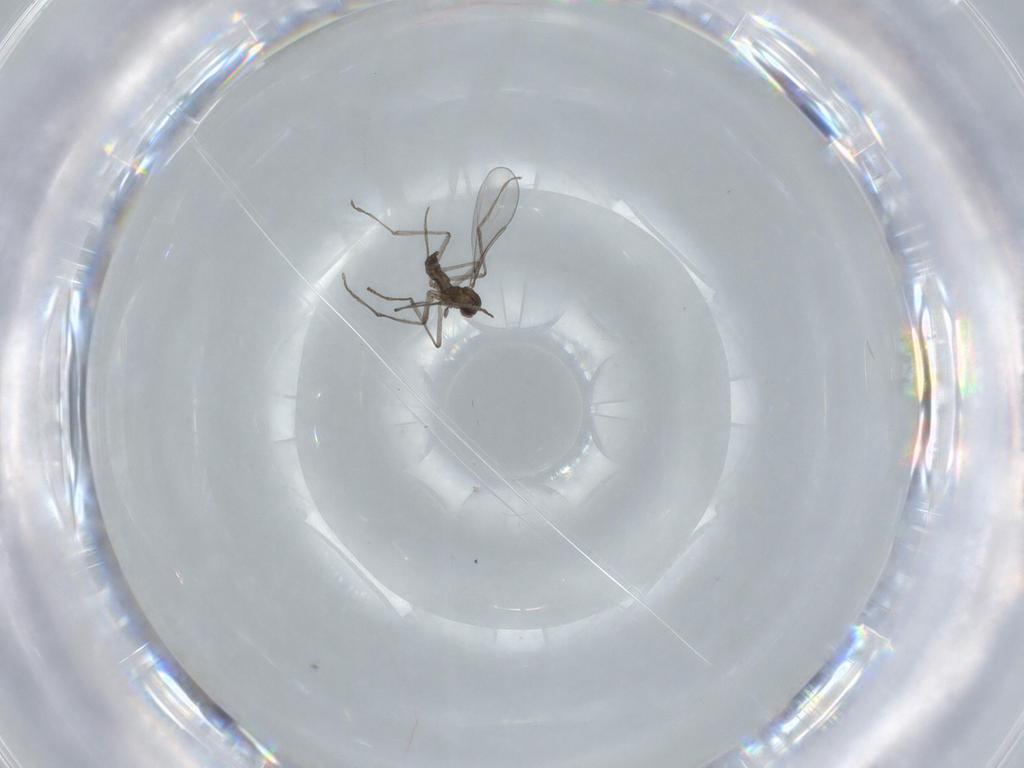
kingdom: Animalia
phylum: Arthropoda
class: Insecta
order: Diptera
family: Cecidomyiidae
